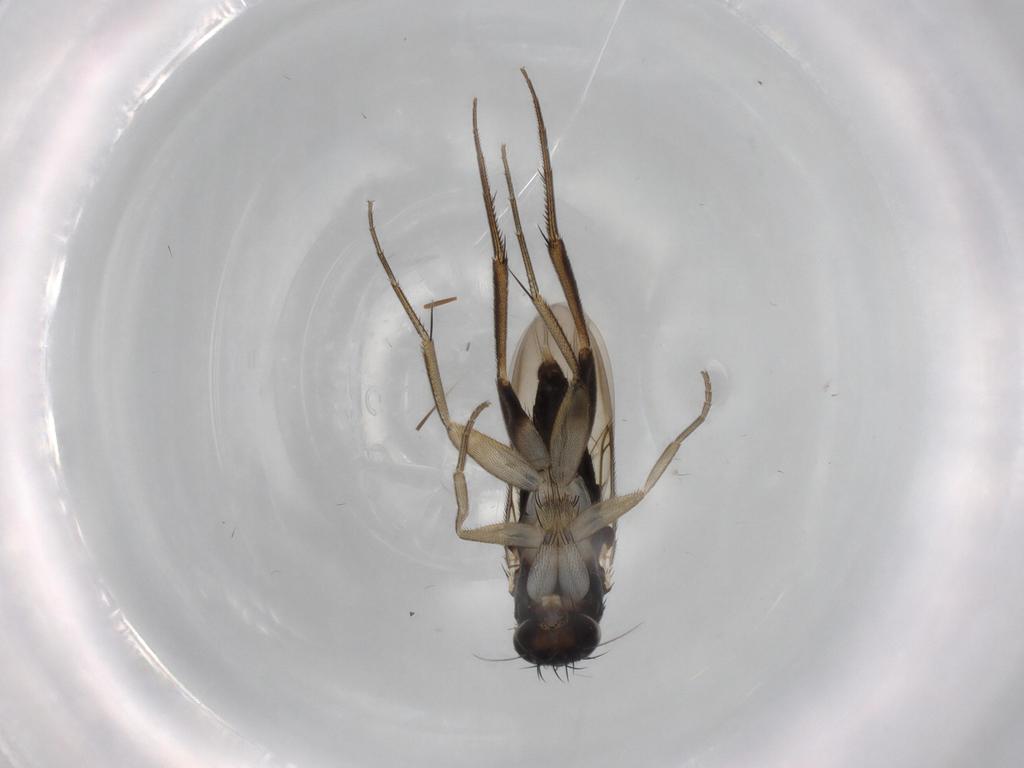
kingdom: Animalia
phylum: Arthropoda
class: Insecta
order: Diptera
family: Phoridae
